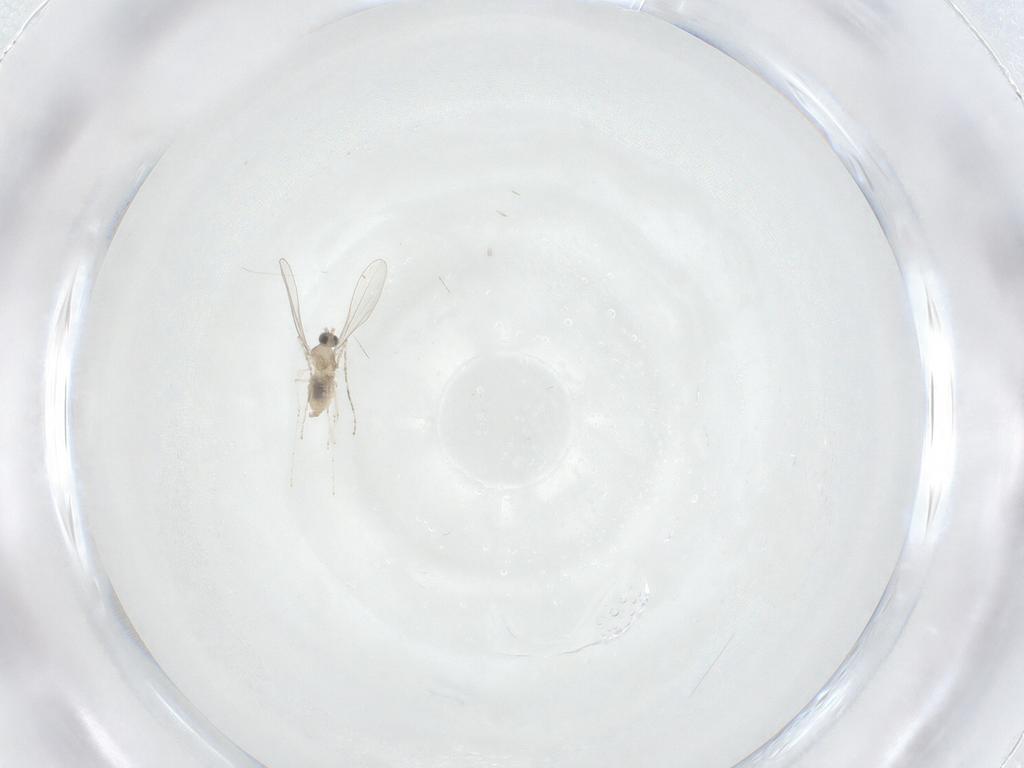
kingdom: Animalia
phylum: Arthropoda
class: Insecta
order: Diptera
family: Cecidomyiidae
